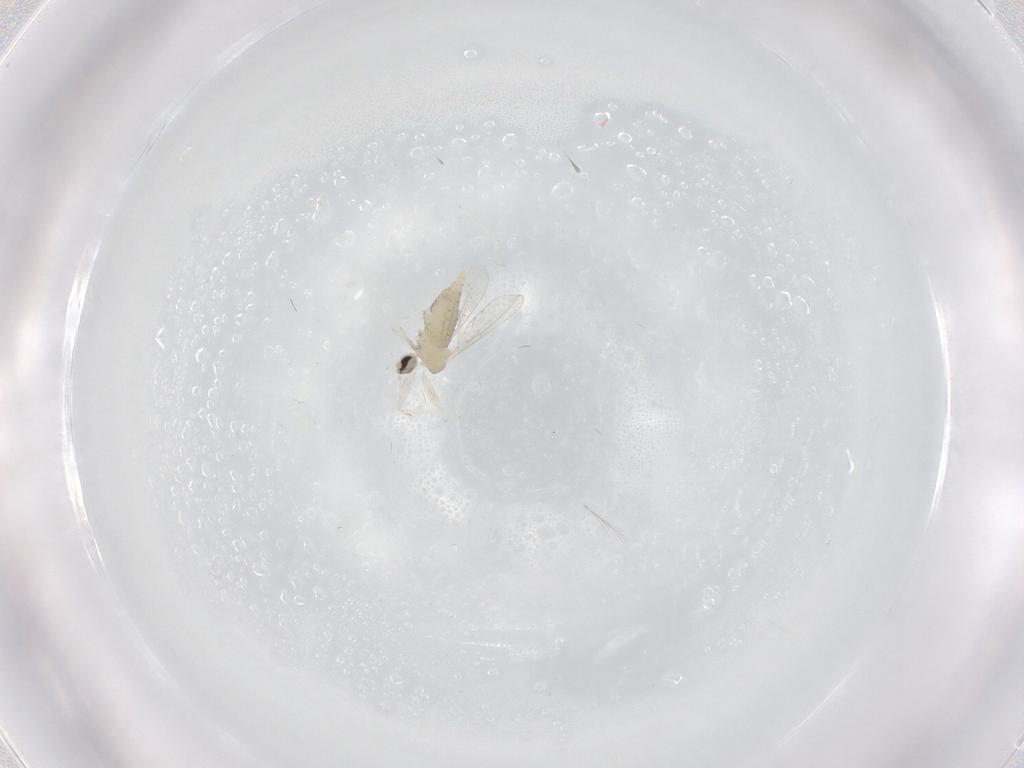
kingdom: Animalia
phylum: Arthropoda
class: Insecta
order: Diptera
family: Cecidomyiidae
